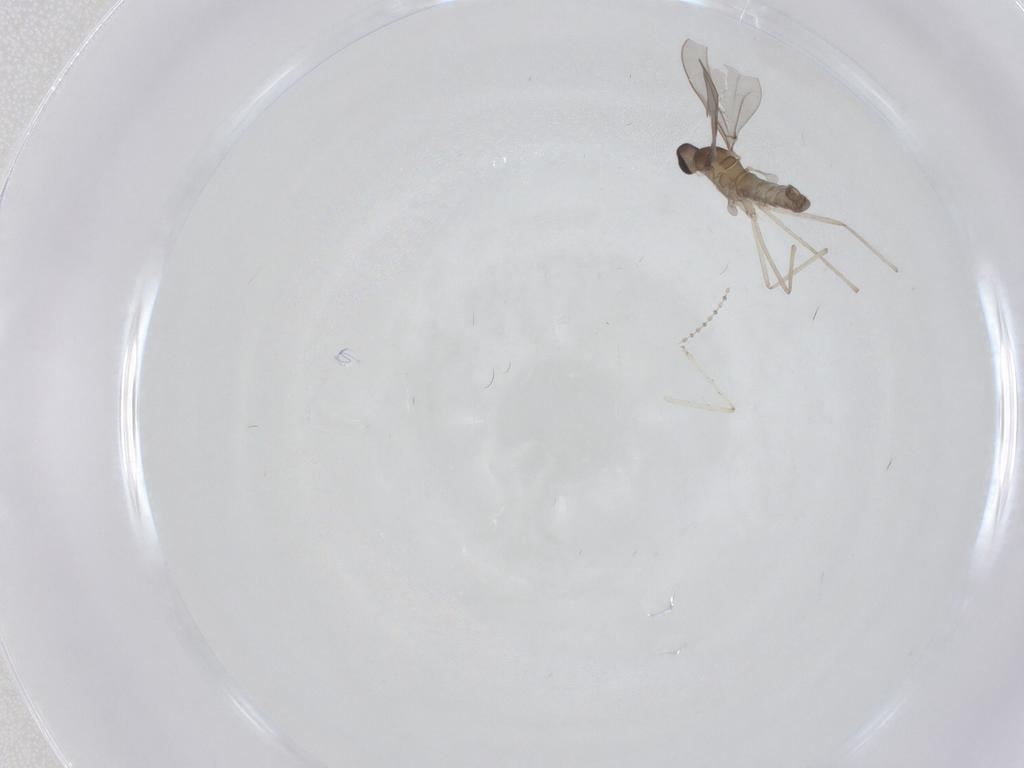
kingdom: Animalia
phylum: Arthropoda
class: Insecta
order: Diptera
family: Cecidomyiidae
